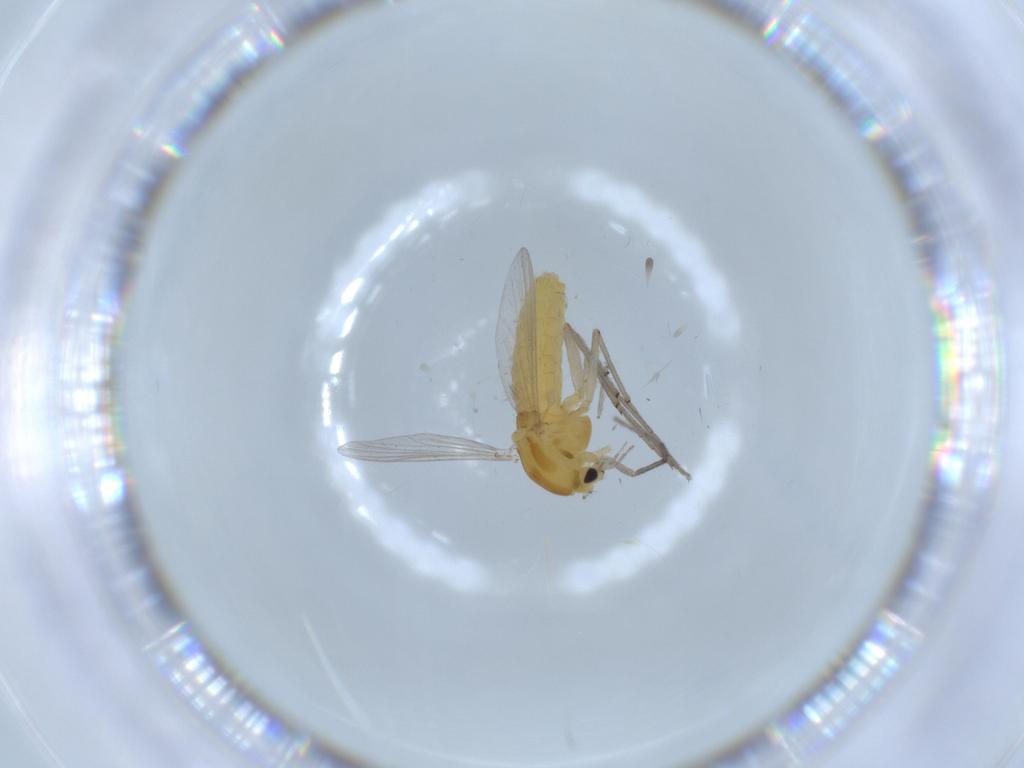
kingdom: Animalia
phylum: Arthropoda
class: Insecta
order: Diptera
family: Chironomidae
